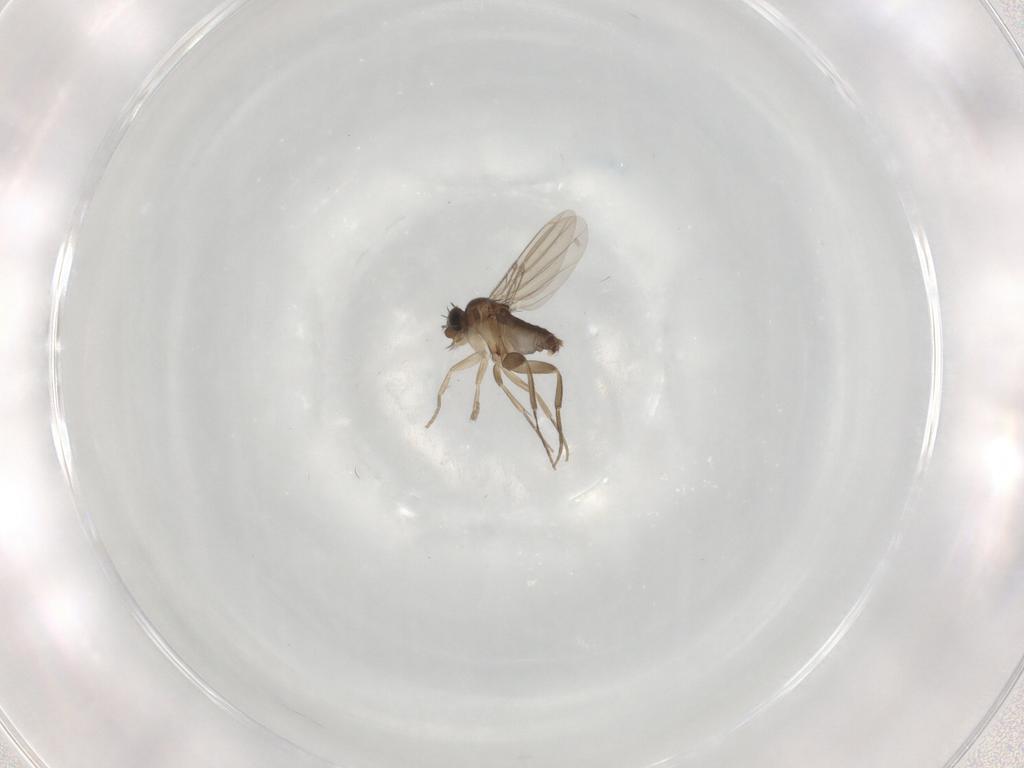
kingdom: Animalia
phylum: Arthropoda
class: Insecta
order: Diptera
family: Phoridae
